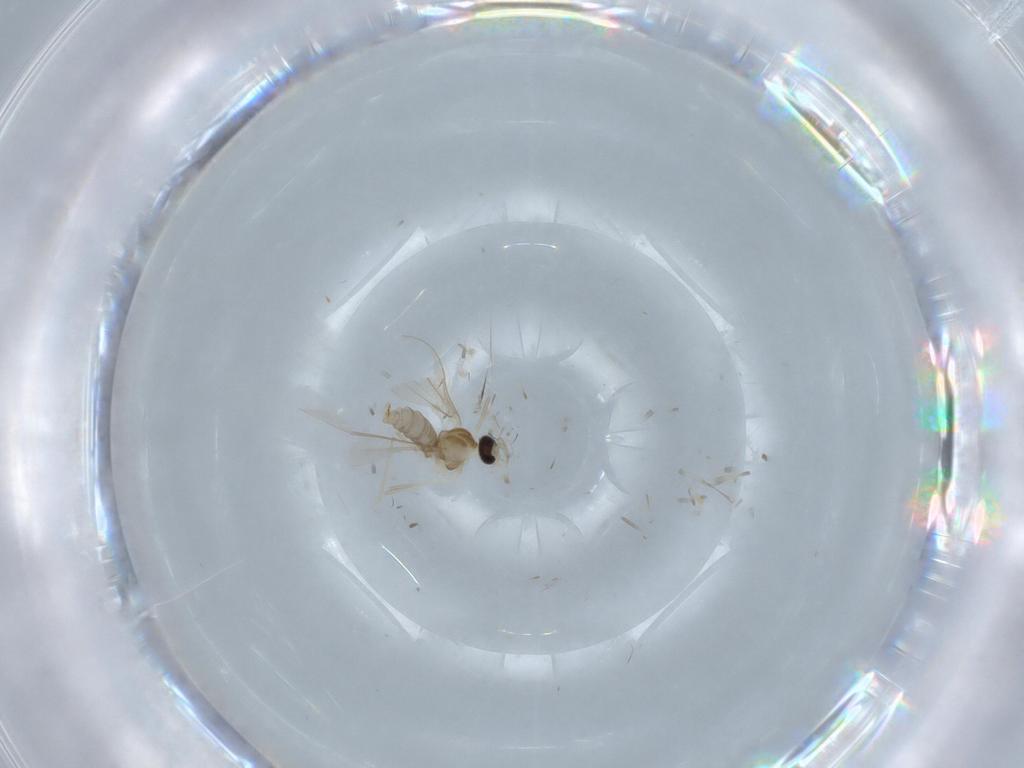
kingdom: Animalia
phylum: Arthropoda
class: Insecta
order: Diptera
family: Cecidomyiidae
